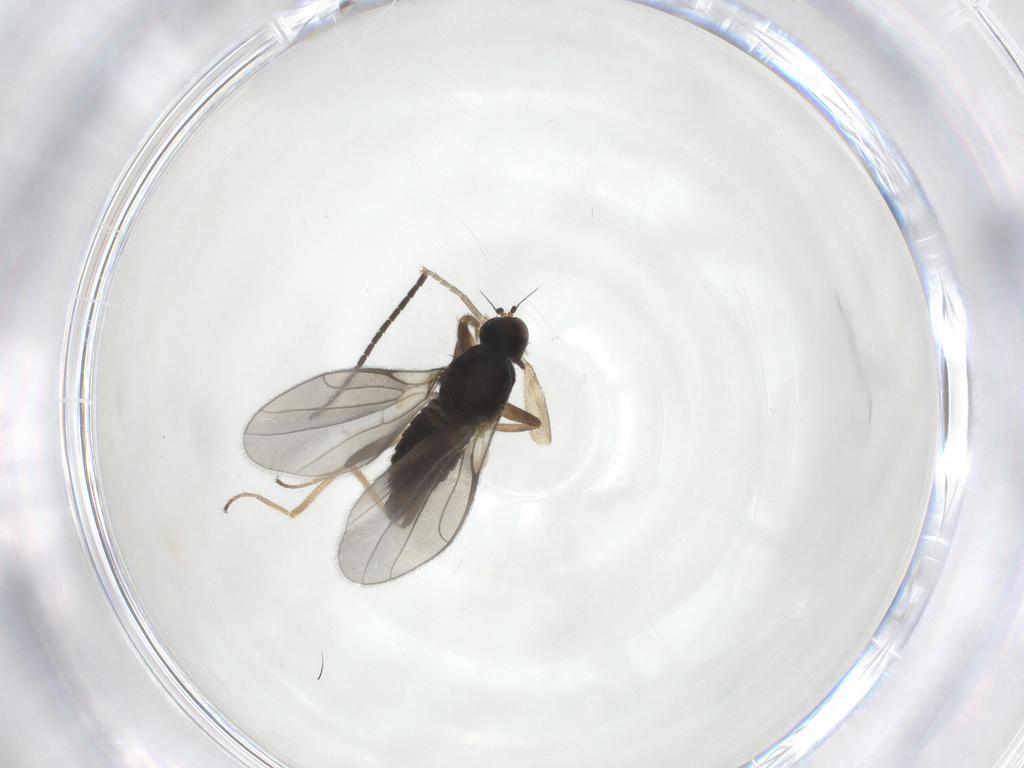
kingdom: Animalia
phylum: Arthropoda
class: Insecta
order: Diptera
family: Hybotidae
